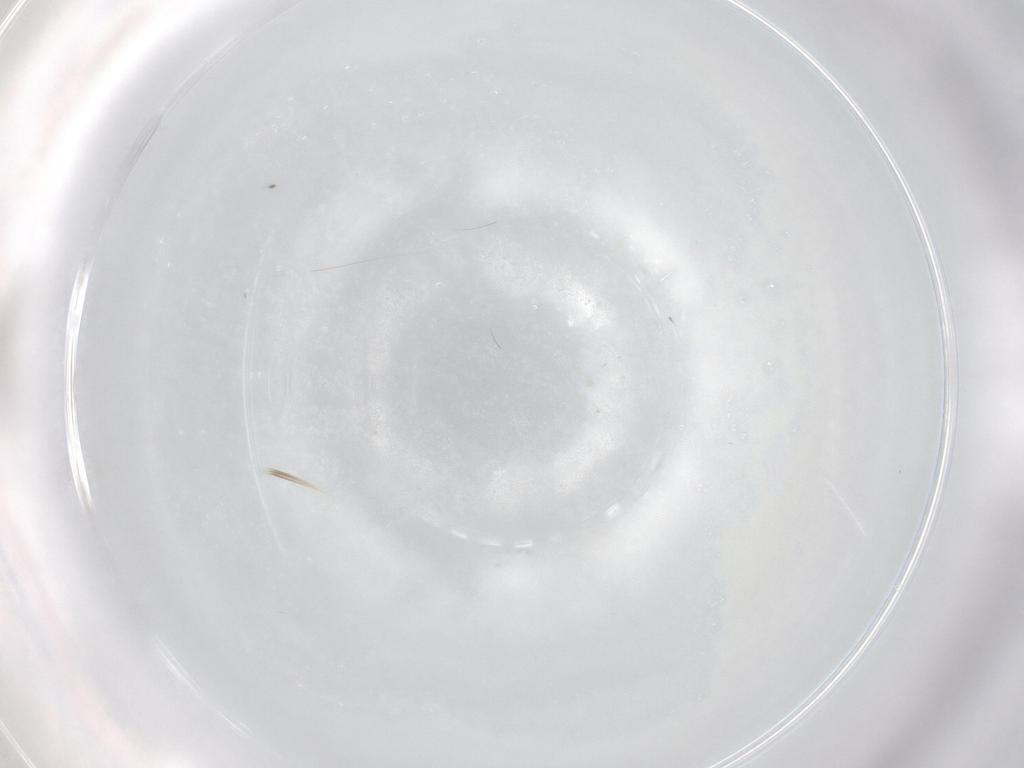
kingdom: Animalia
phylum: Arthropoda
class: Insecta
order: Diptera
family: Ceratopogonidae
